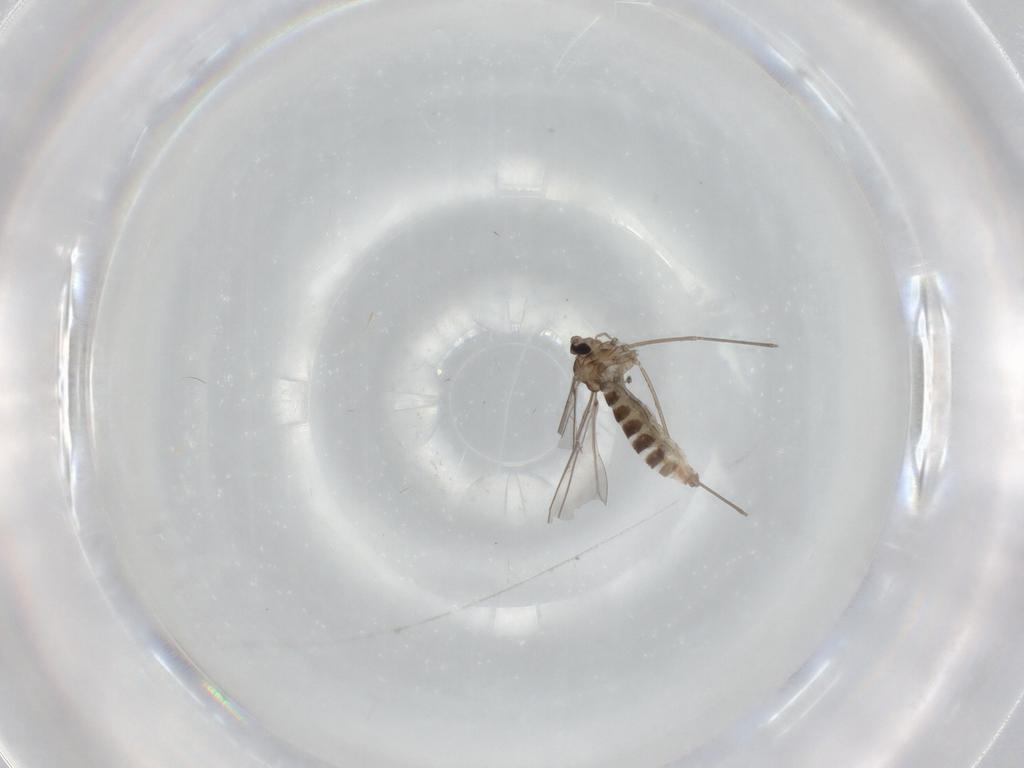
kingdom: Animalia
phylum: Arthropoda
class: Insecta
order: Diptera
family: Cecidomyiidae
